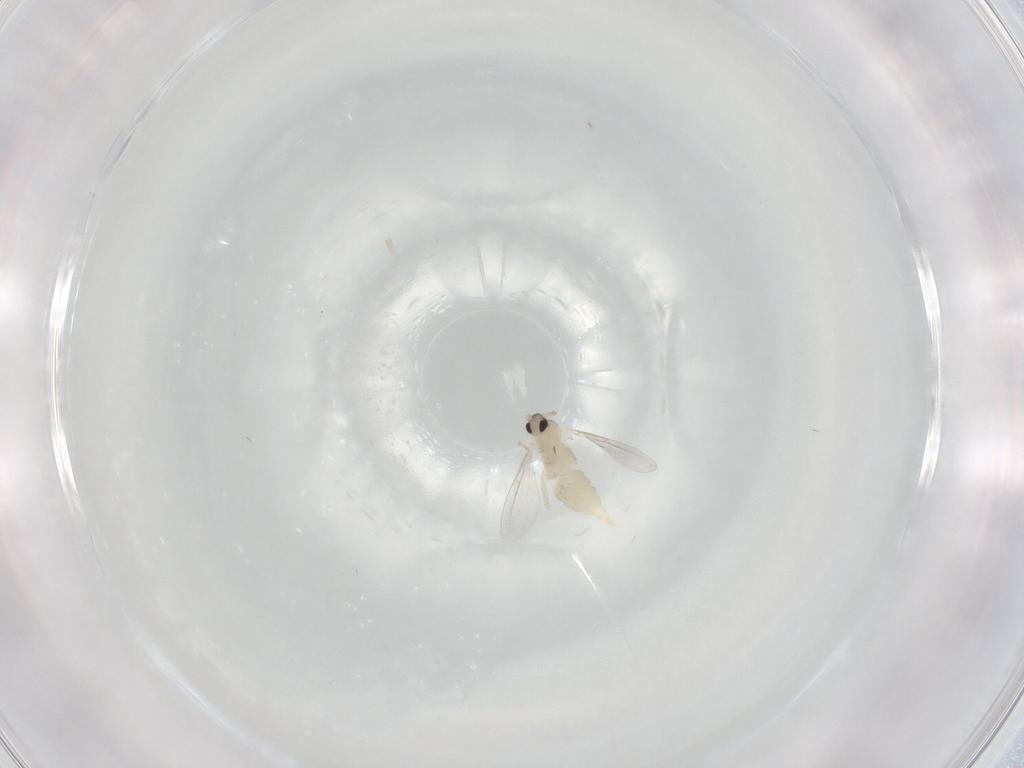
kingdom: Animalia
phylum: Arthropoda
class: Insecta
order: Diptera
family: Cecidomyiidae
